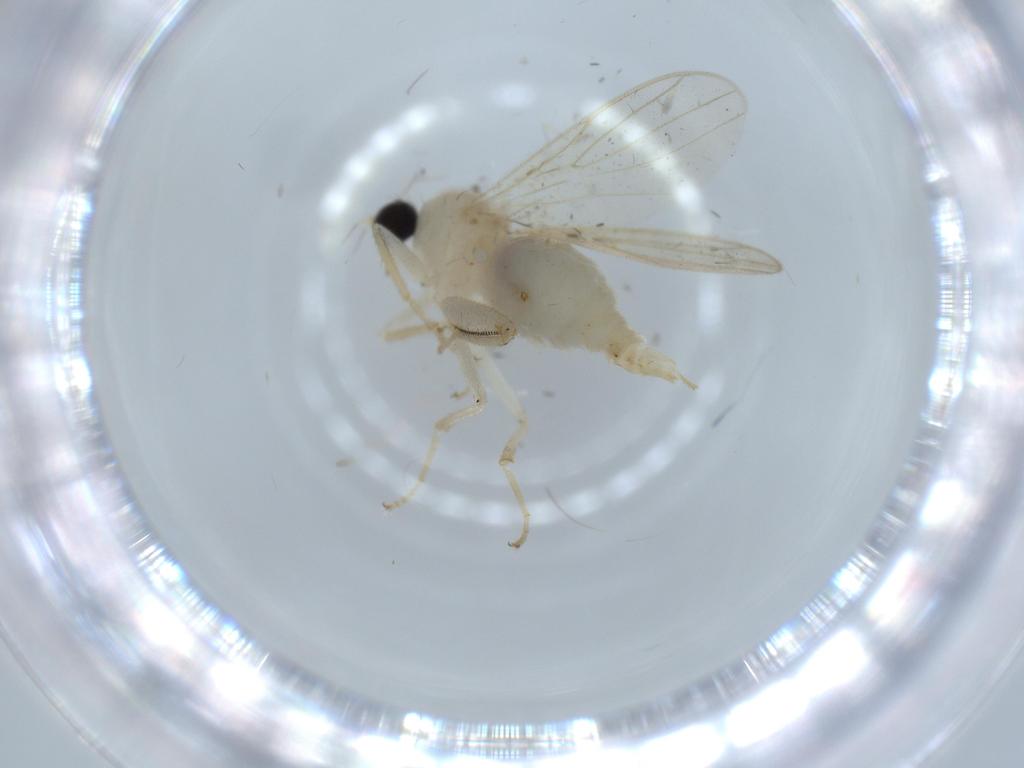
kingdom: Animalia
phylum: Arthropoda
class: Insecta
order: Diptera
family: Hybotidae
